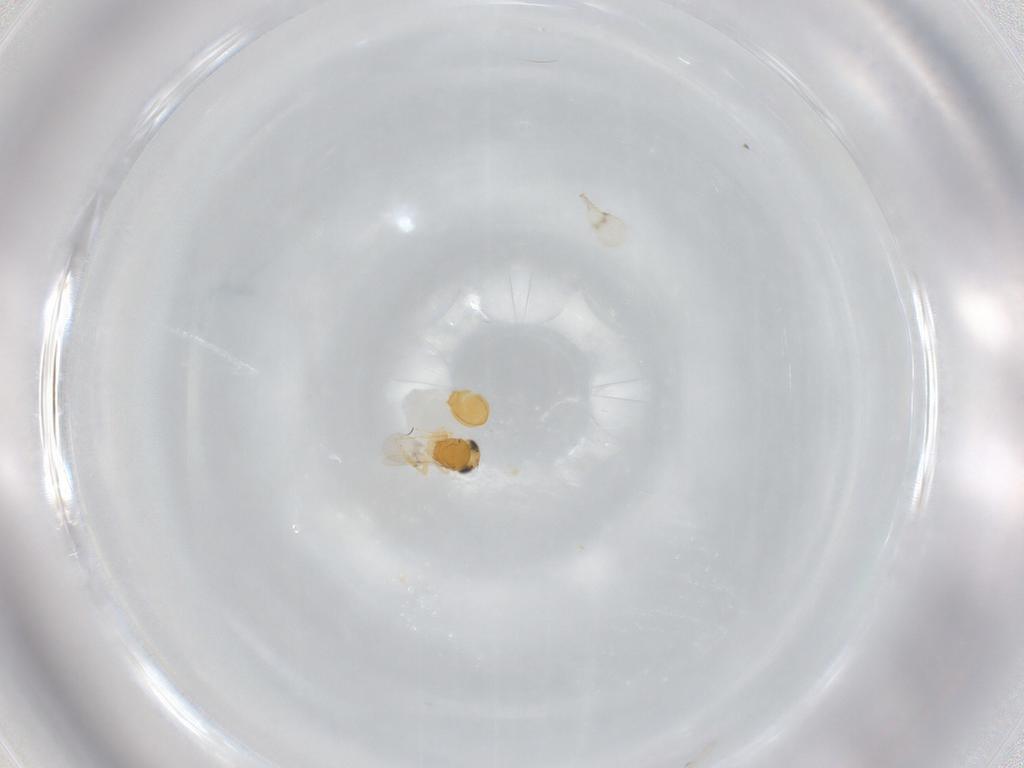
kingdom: Animalia
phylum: Arthropoda
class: Insecta
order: Hymenoptera
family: Scelionidae
